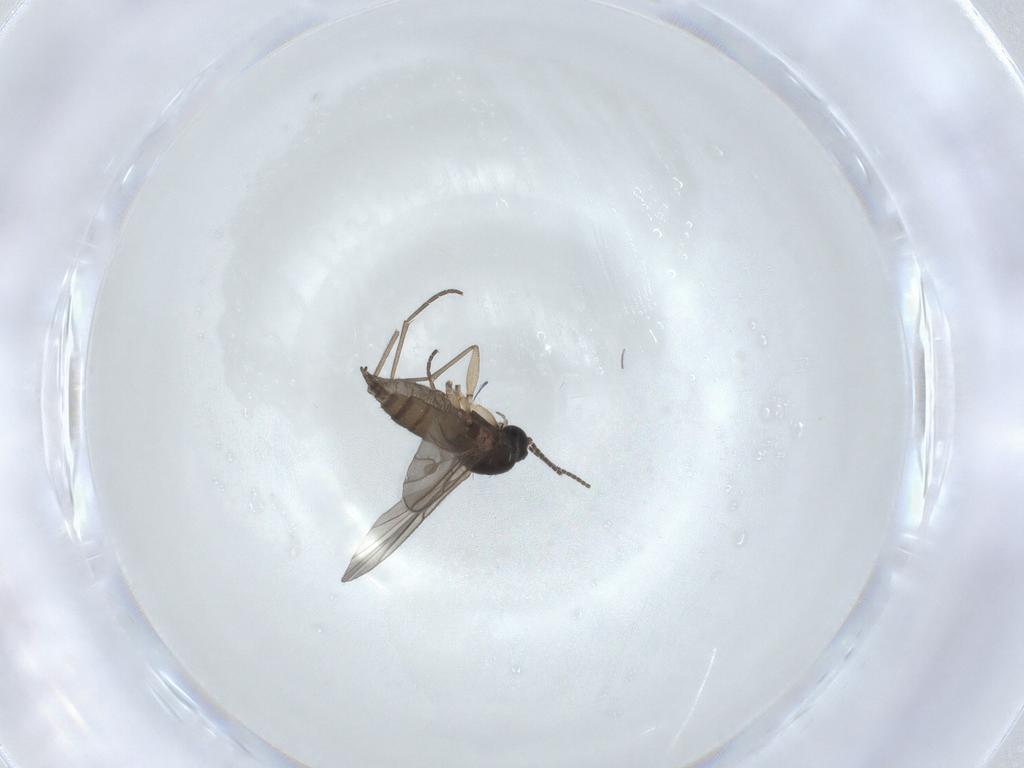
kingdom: Animalia
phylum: Arthropoda
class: Insecta
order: Diptera
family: Sciaridae
